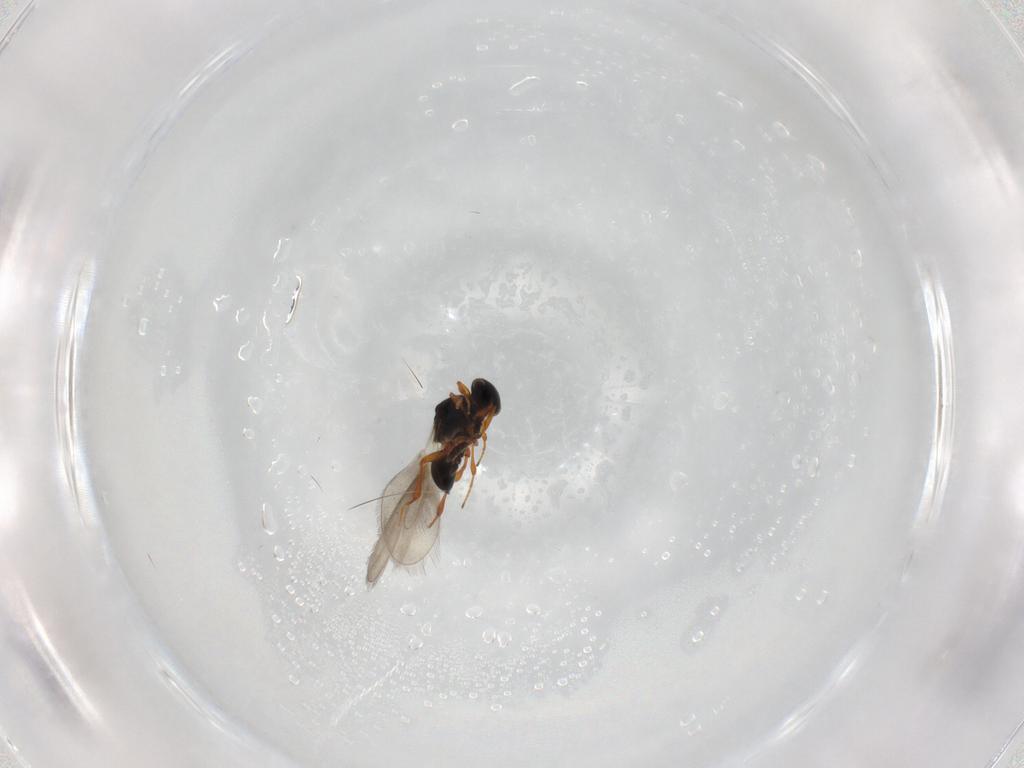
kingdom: Animalia
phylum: Arthropoda
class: Insecta
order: Hymenoptera
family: Platygastridae
